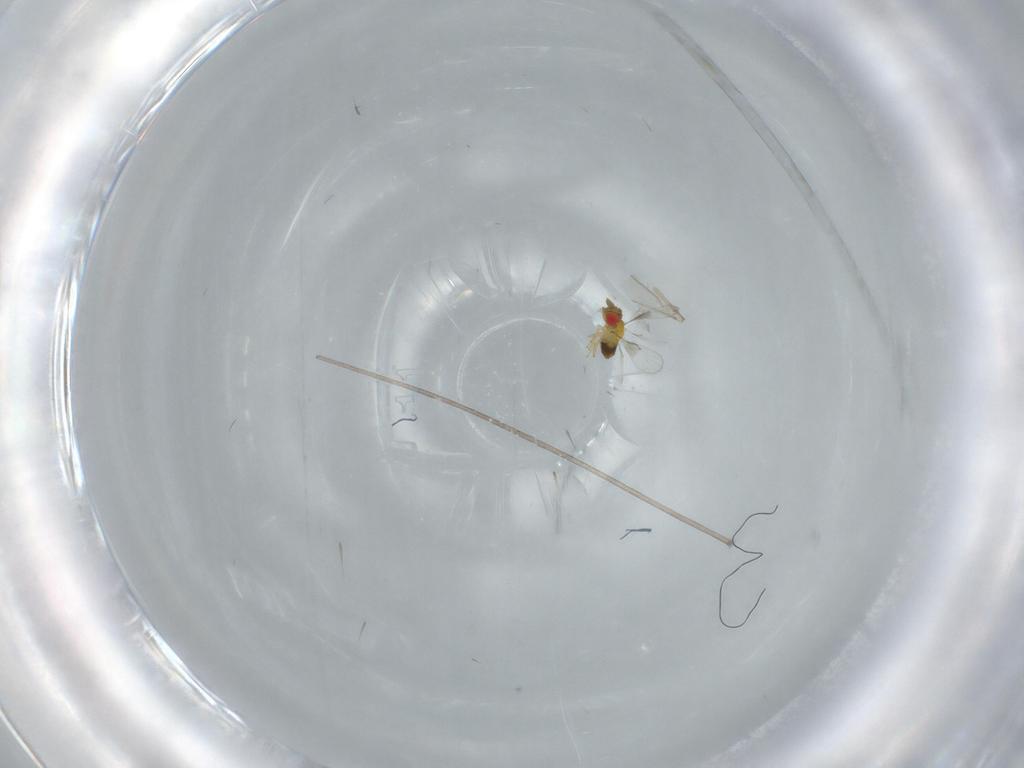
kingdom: Animalia
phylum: Arthropoda
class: Insecta
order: Hymenoptera
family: Trichogrammatidae
